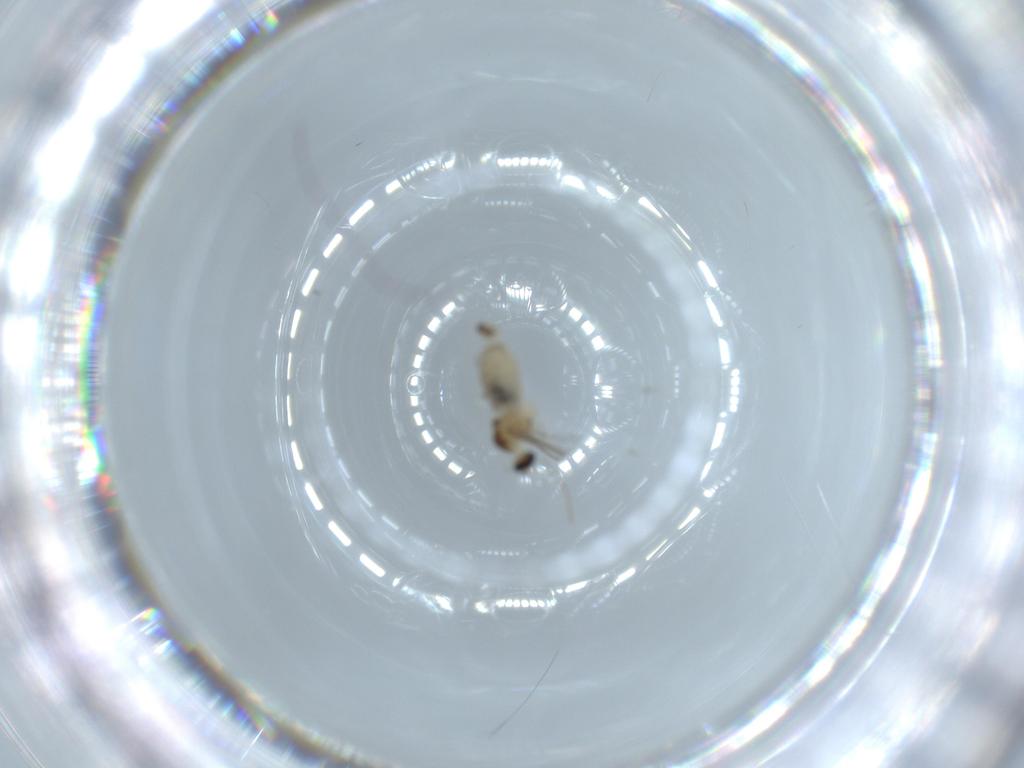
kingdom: Animalia
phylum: Arthropoda
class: Insecta
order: Diptera
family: Cecidomyiidae
